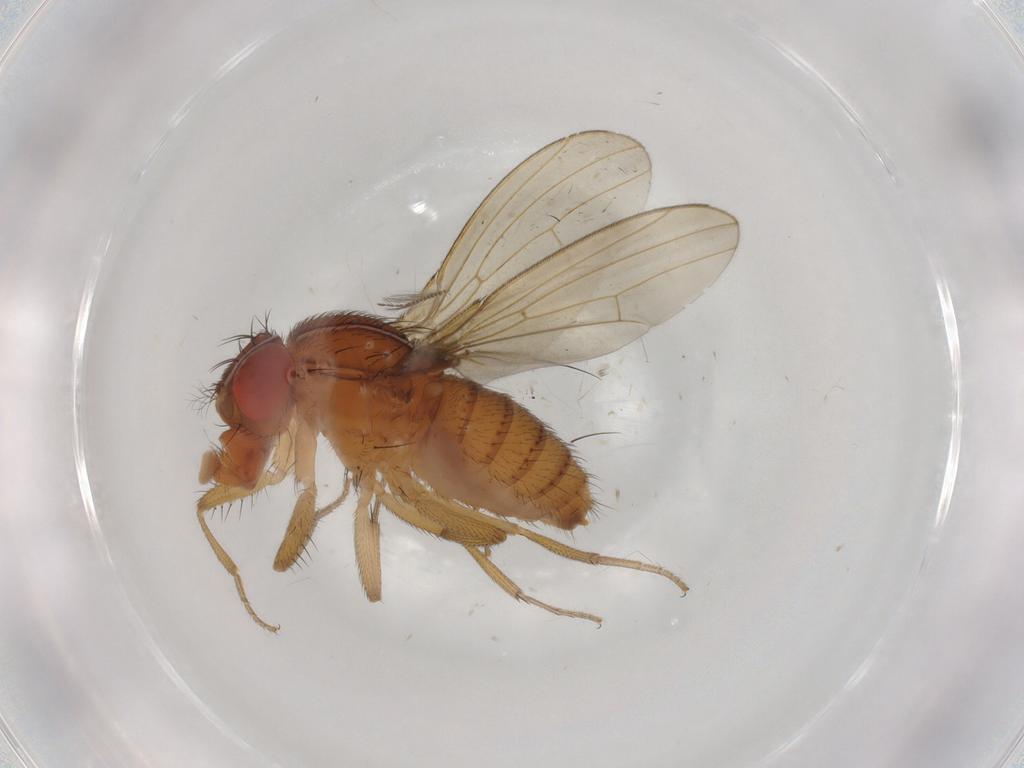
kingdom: Animalia
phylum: Arthropoda
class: Insecta
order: Diptera
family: Drosophilidae
